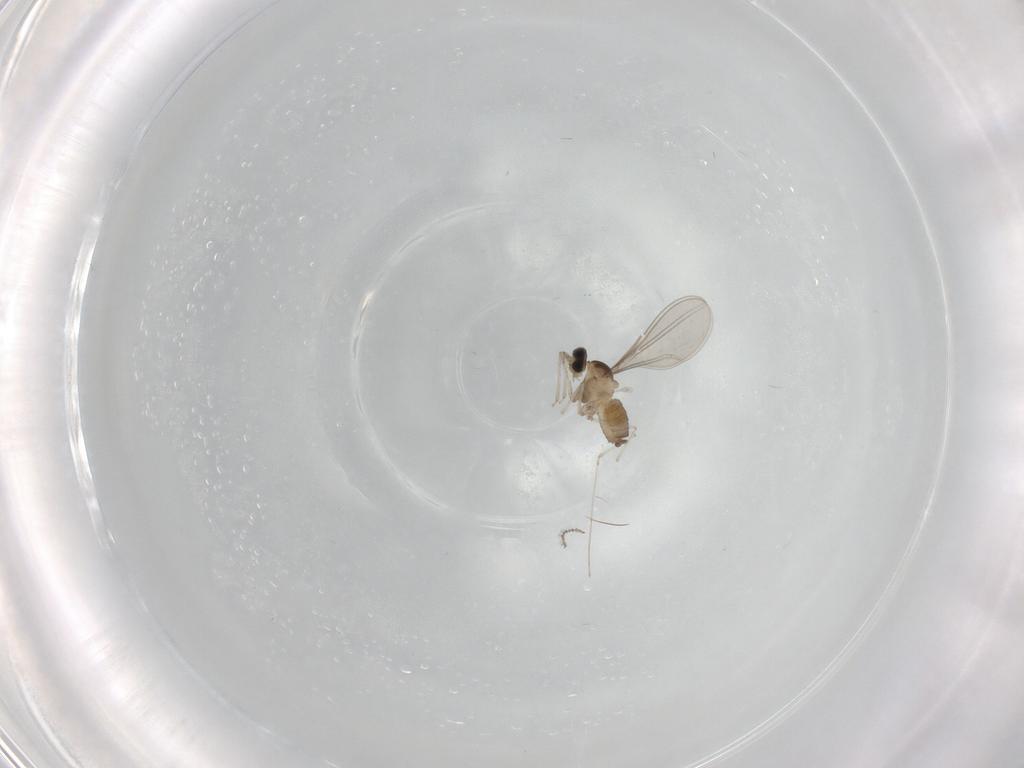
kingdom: Animalia
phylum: Arthropoda
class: Insecta
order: Diptera
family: Cecidomyiidae
